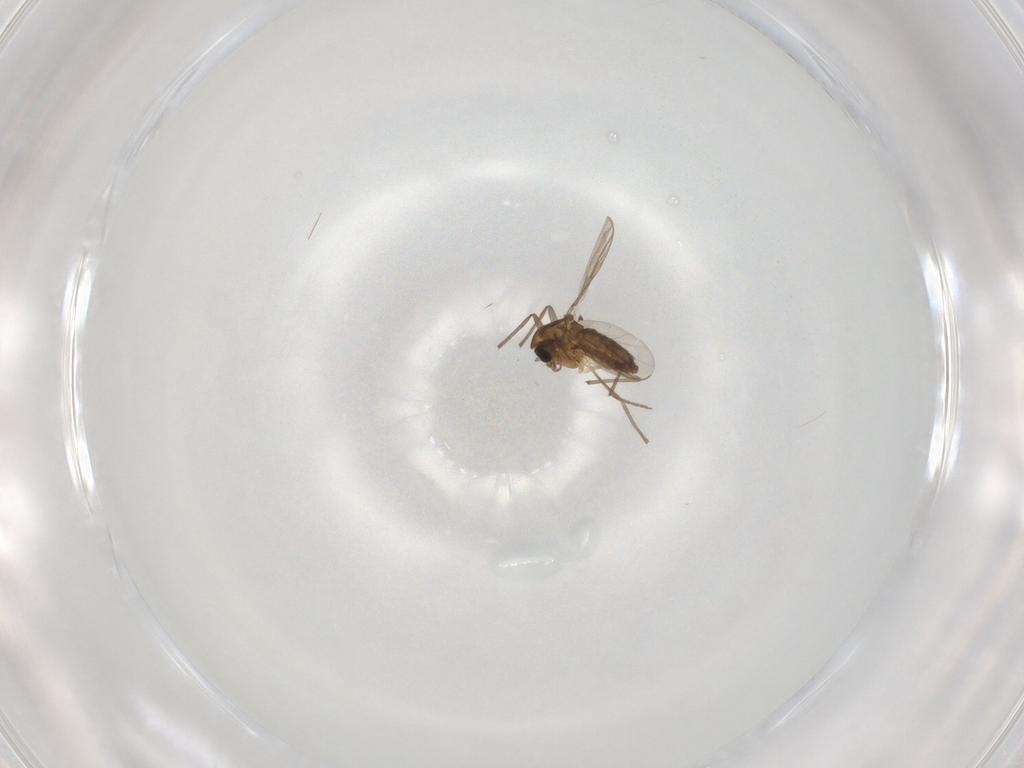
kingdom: Animalia
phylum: Arthropoda
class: Insecta
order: Diptera
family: Chironomidae
